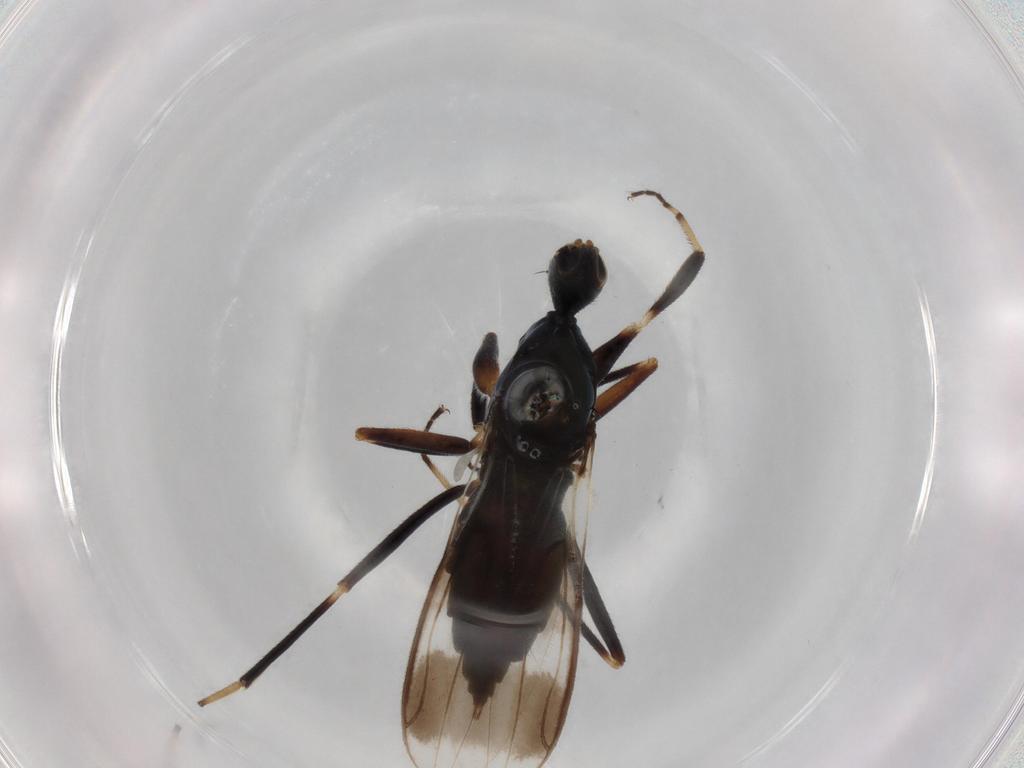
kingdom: Animalia
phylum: Arthropoda
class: Insecta
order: Diptera
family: Hybotidae
